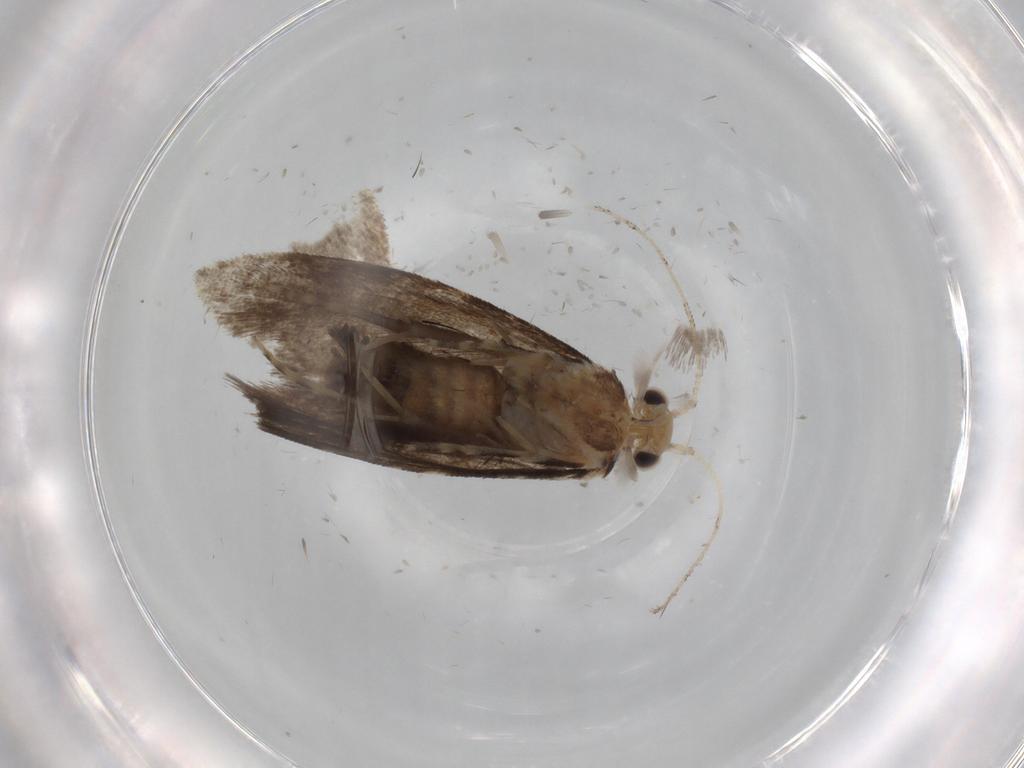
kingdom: Animalia
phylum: Arthropoda
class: Insecta
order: Lepidoptera
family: Tineidae
